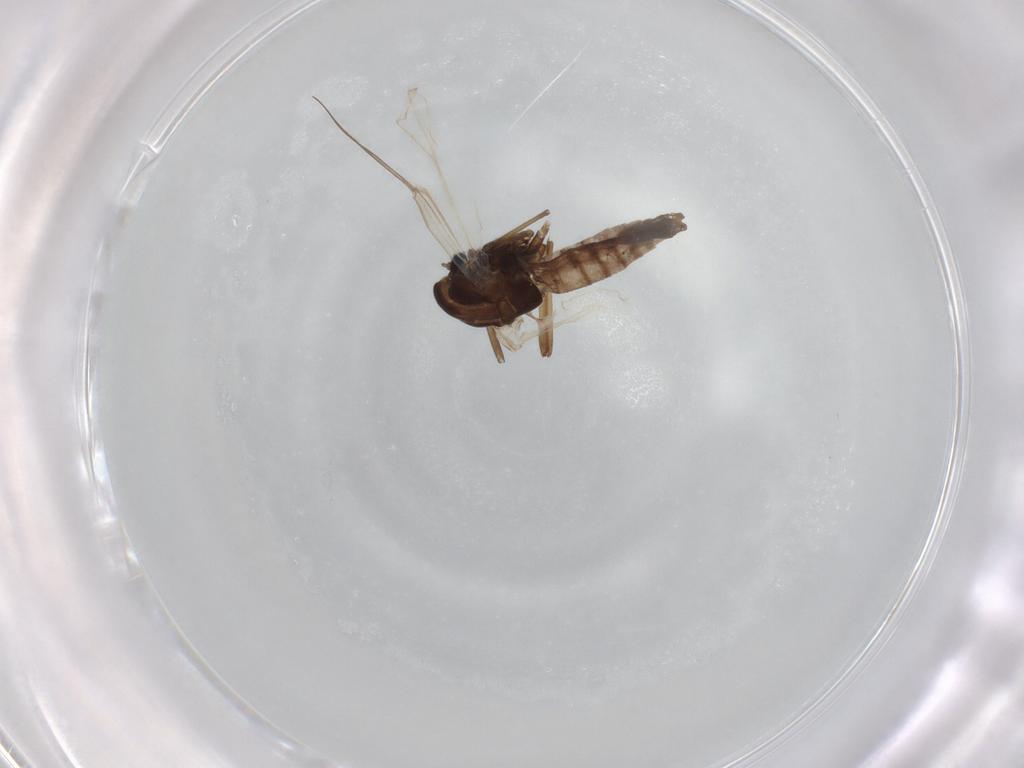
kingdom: Animalia
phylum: Arthropoda
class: Insecta
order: Diptera
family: Chironomidae
